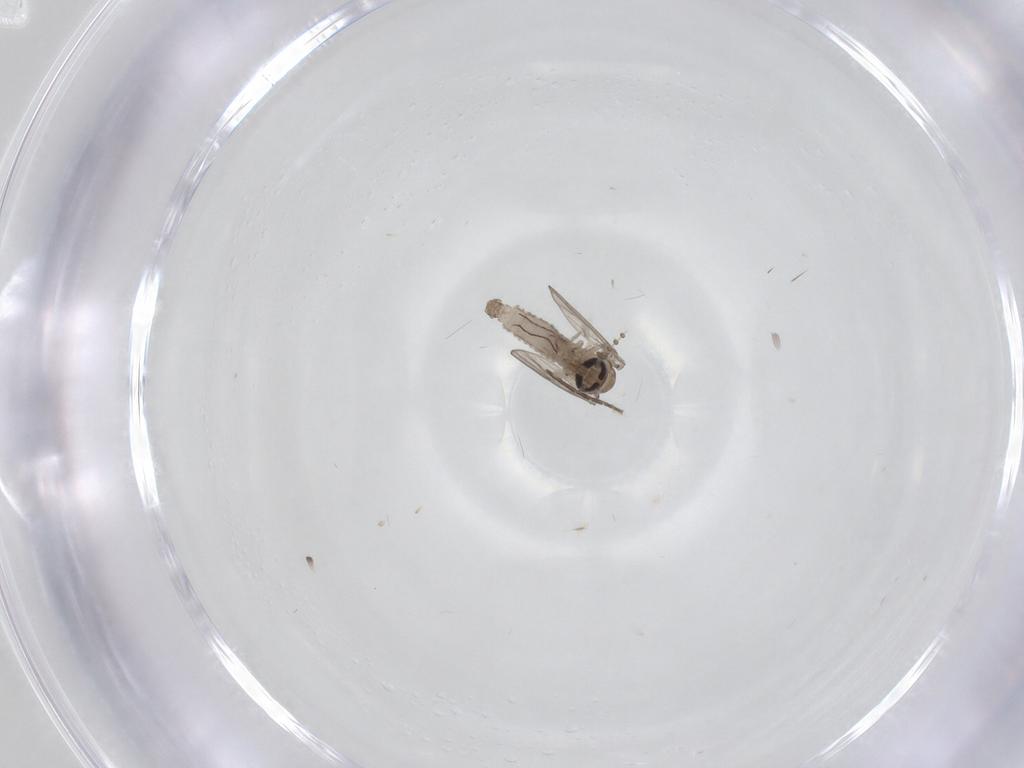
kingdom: Animalia
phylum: Arthropoda
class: Insecta
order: Diptera
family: Psychodidae
